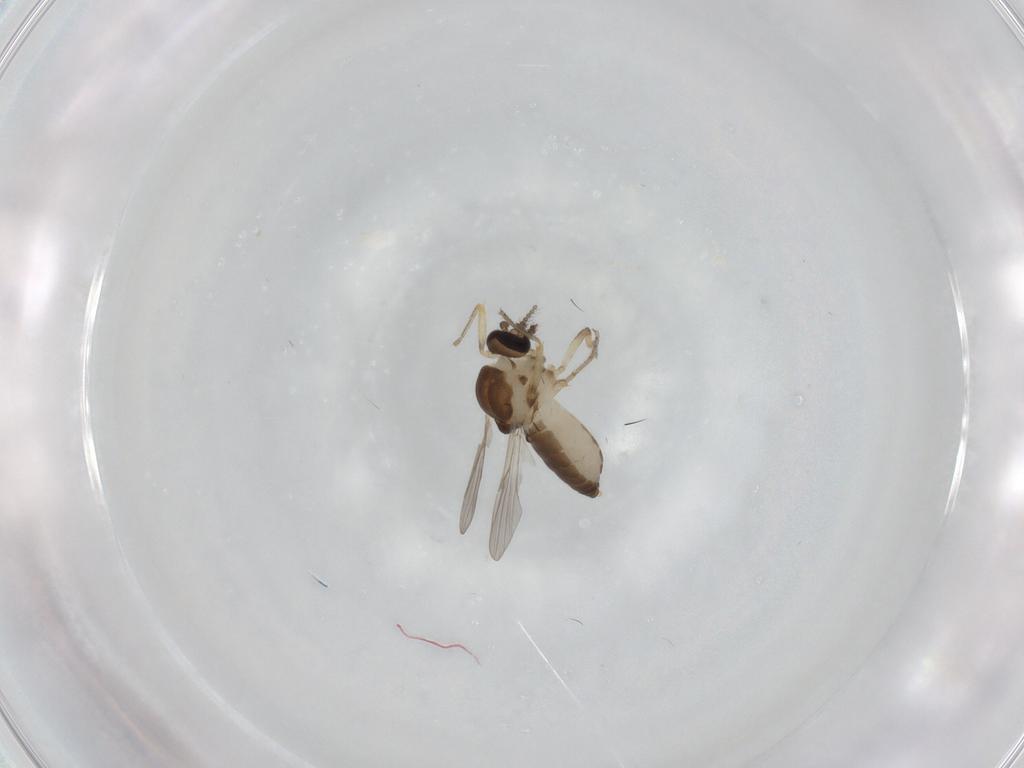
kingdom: Animalia
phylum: Arthropoda
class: Insecta
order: Diptera
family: Ceratopogonidae
